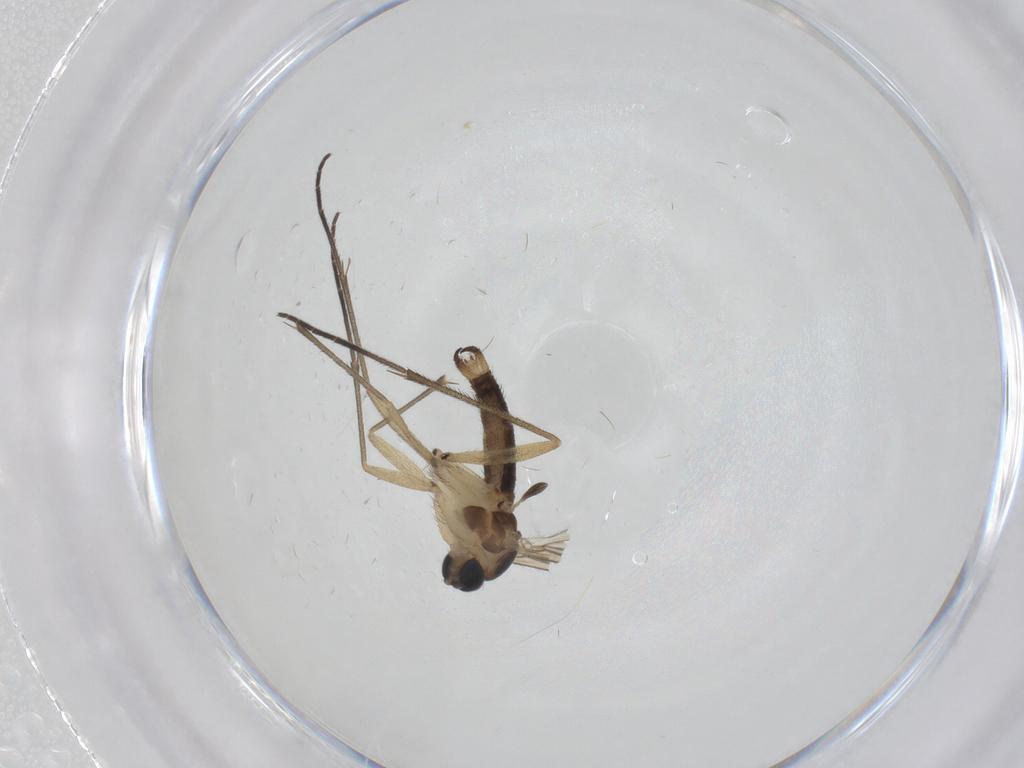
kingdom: Animalia
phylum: Arthropoda
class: Insecta
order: Diptera
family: Sciaridae
